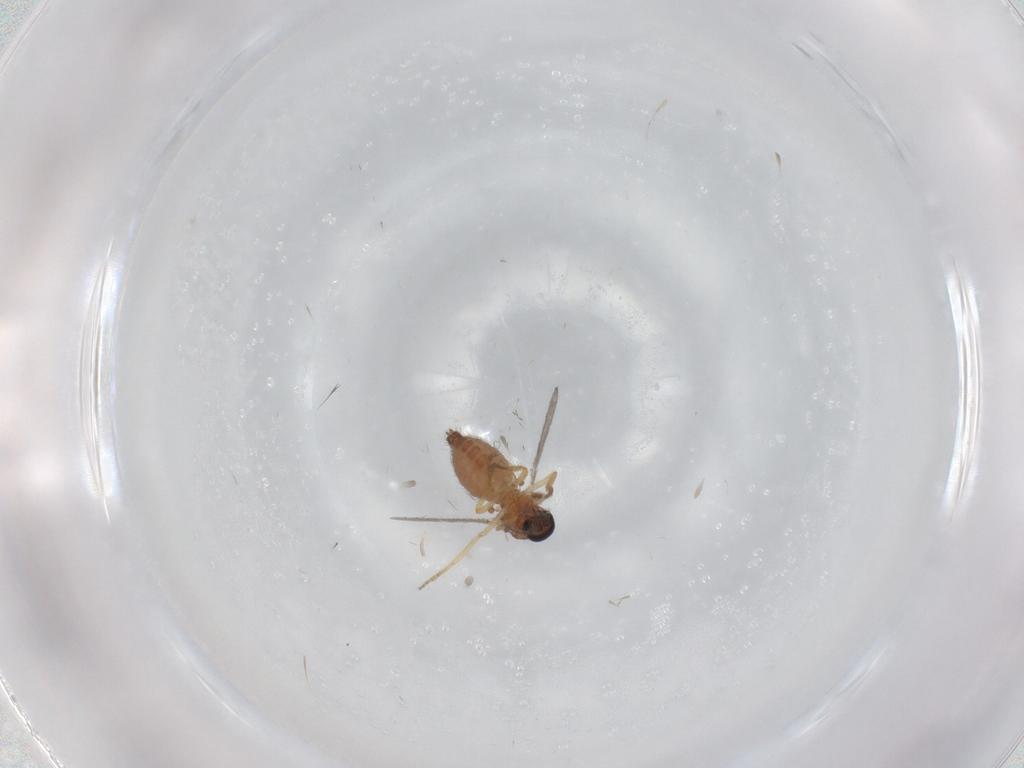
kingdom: Animalia
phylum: Arthropoda
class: Insecta
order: Diptera
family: Ceratopogonidae
